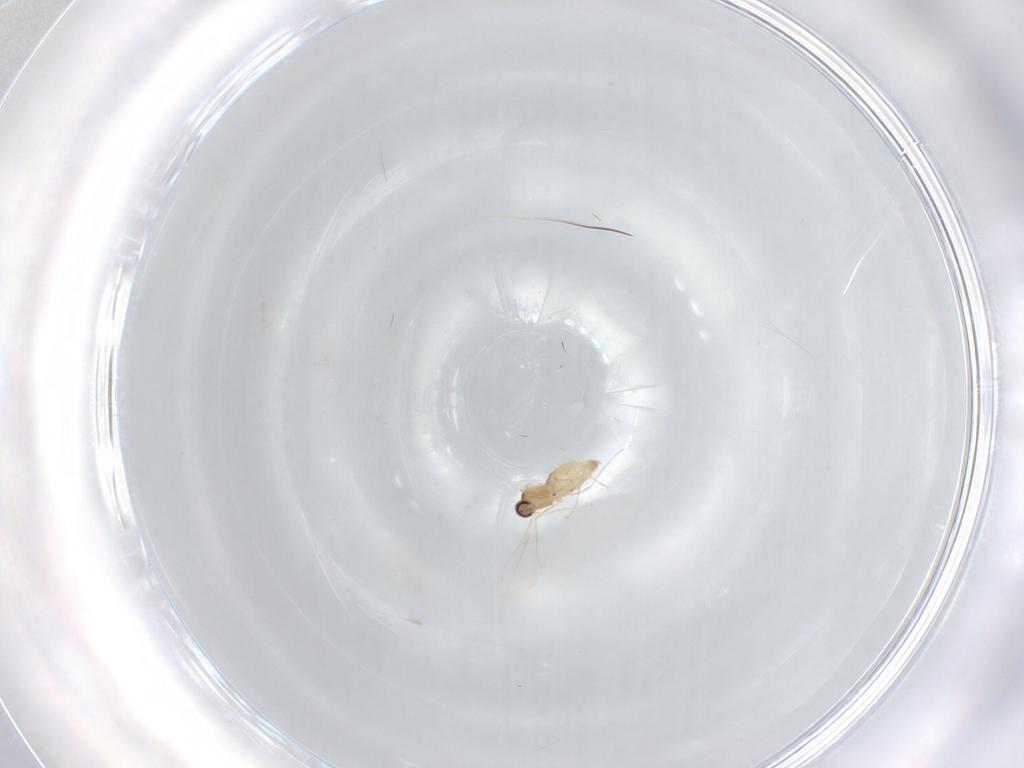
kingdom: Animalia
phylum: Arthropoda
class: Insecta
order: Diptera
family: Cecidomyiidae
